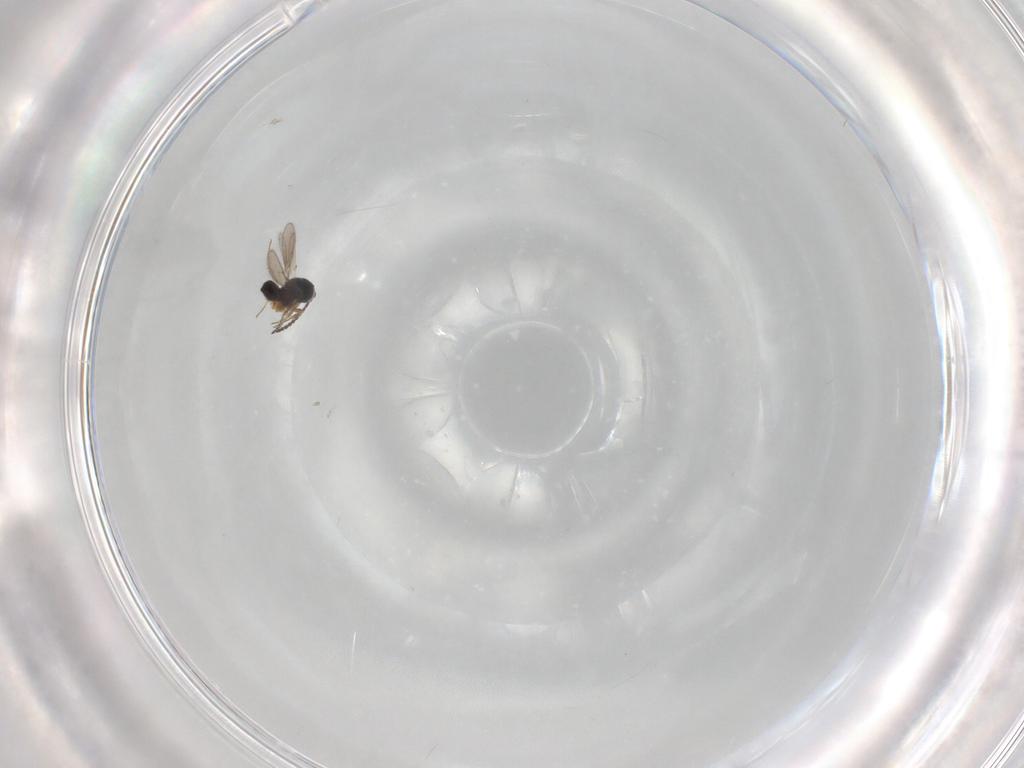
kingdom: Animalia
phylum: Arthropoda
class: Insecta
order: Hymenoptera
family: Scelionidae
